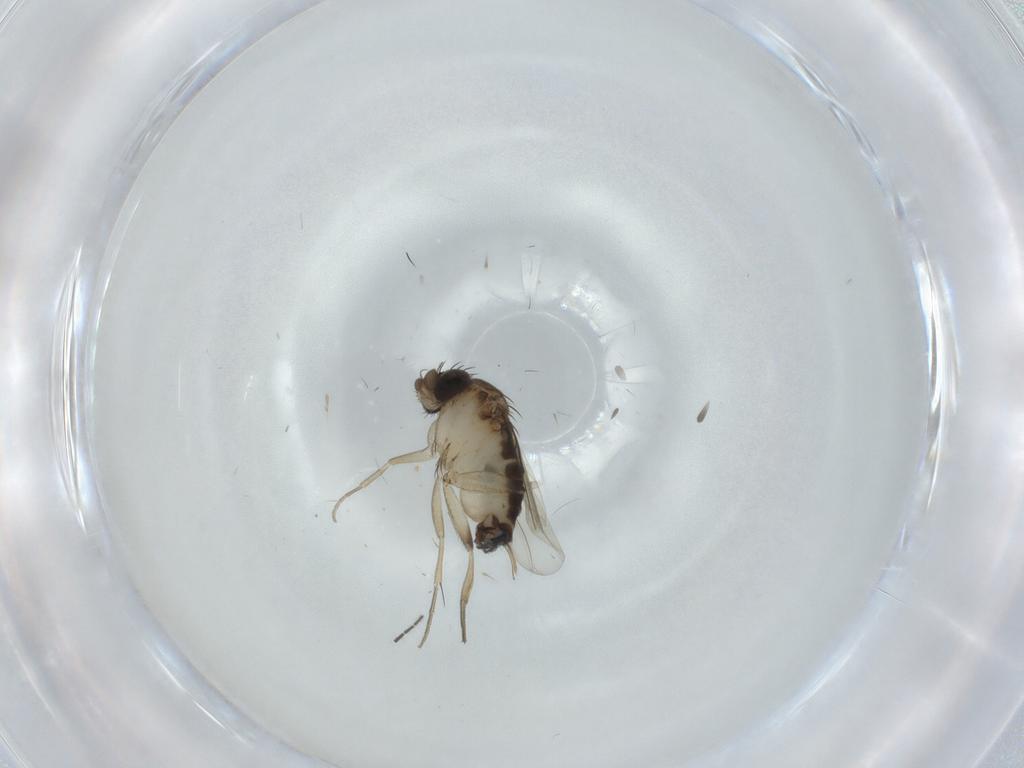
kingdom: Animalia
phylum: Arthropoda
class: Insecta
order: Diptera
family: Phoridae
